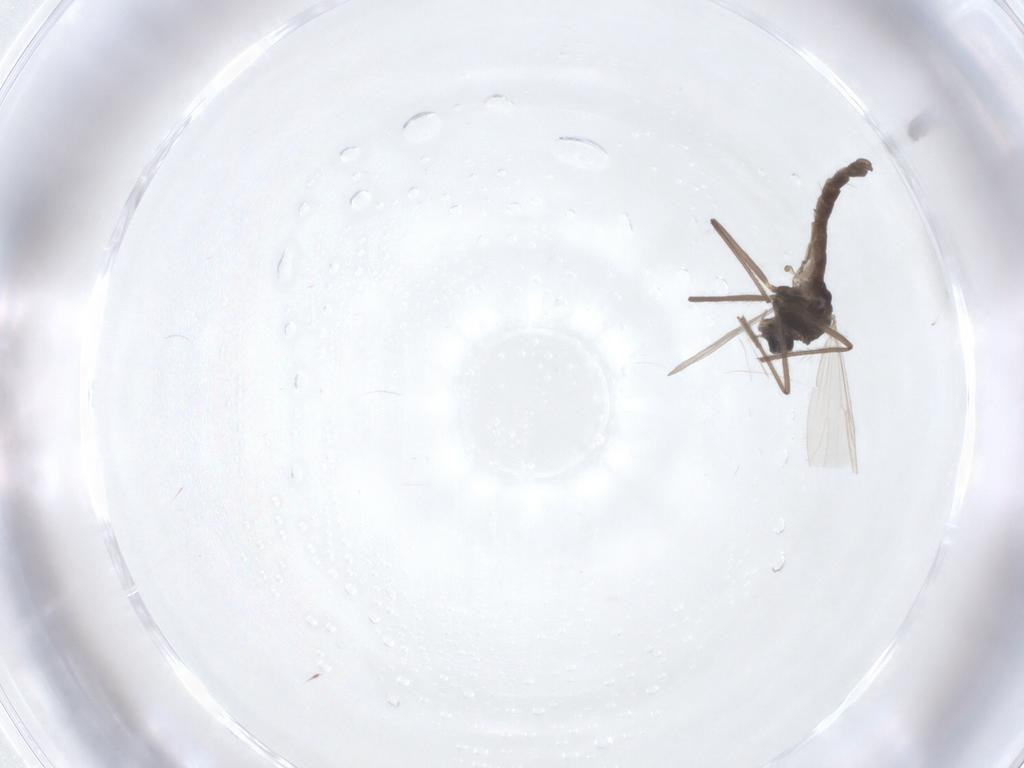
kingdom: Animalia
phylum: Arthropoda
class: Insecta
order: Diptera
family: Chironomidae
